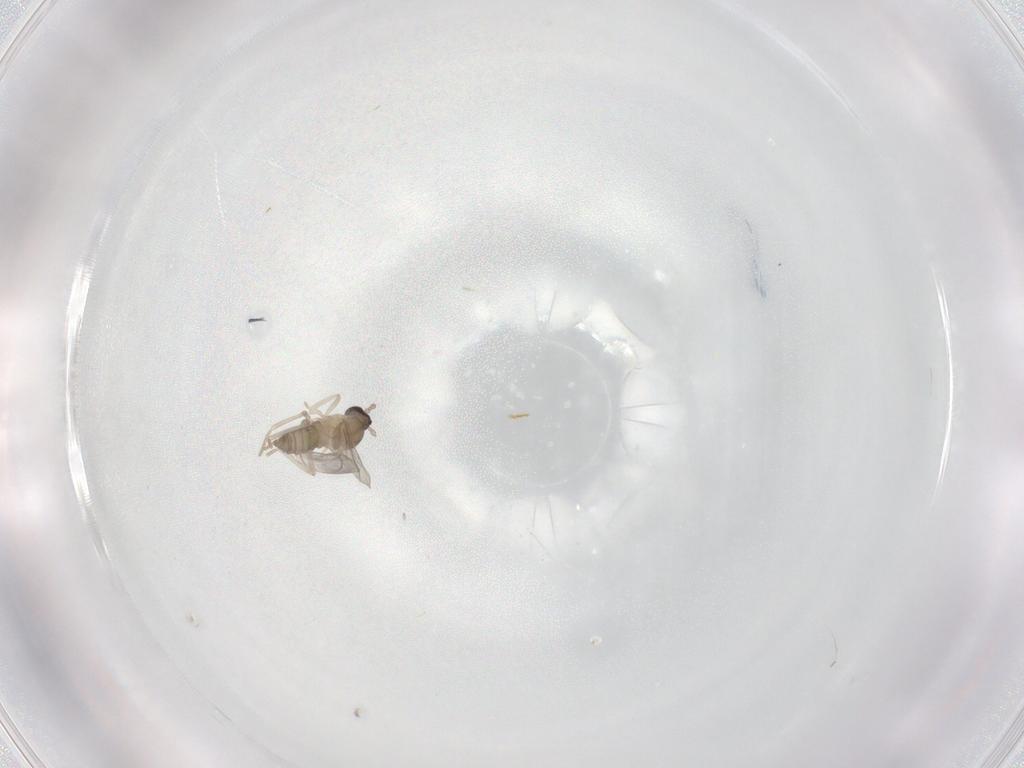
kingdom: Animalia
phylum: Arthropoda
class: Insecta
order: Diptera
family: Cecidomyiidae
